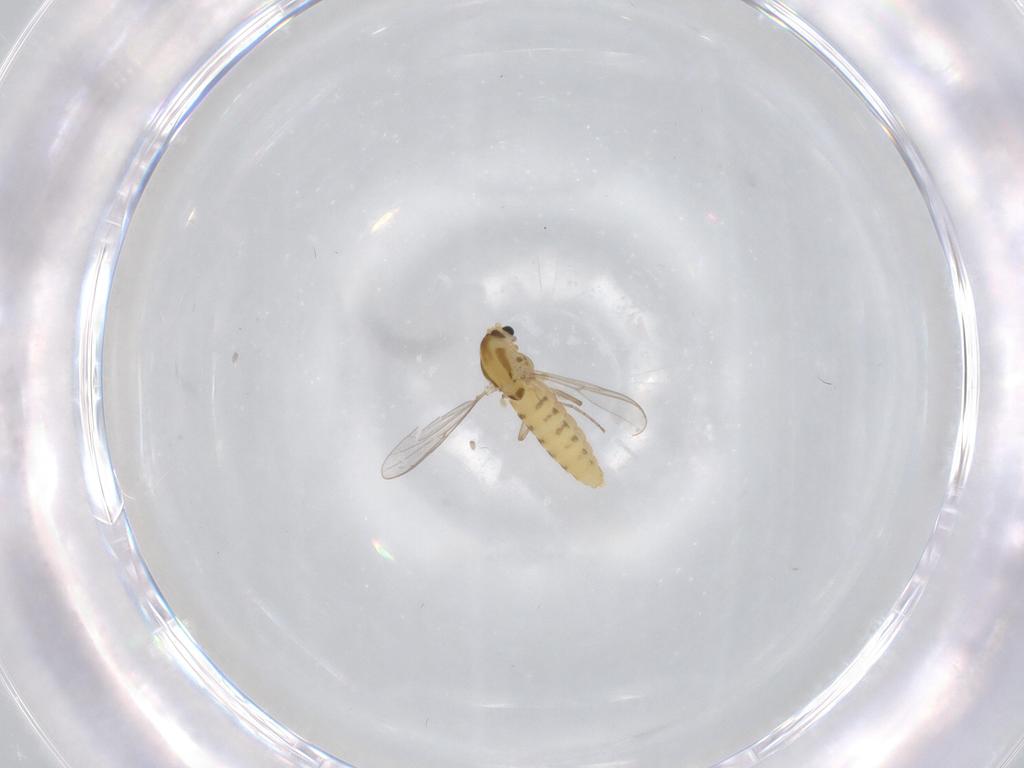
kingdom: Animalia
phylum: Arthropoda
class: Insecta
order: Diptera
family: Chironomidae
